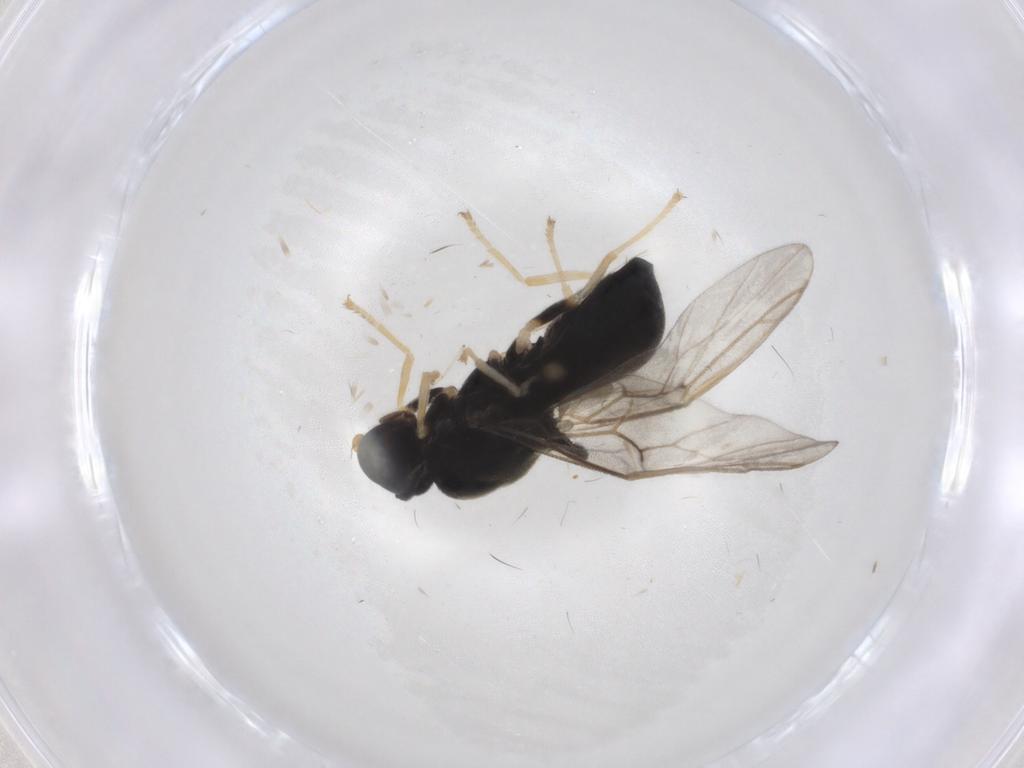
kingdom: Animalia
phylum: Arthropoda
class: Insecta
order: Diptera
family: Stratiomyidae
